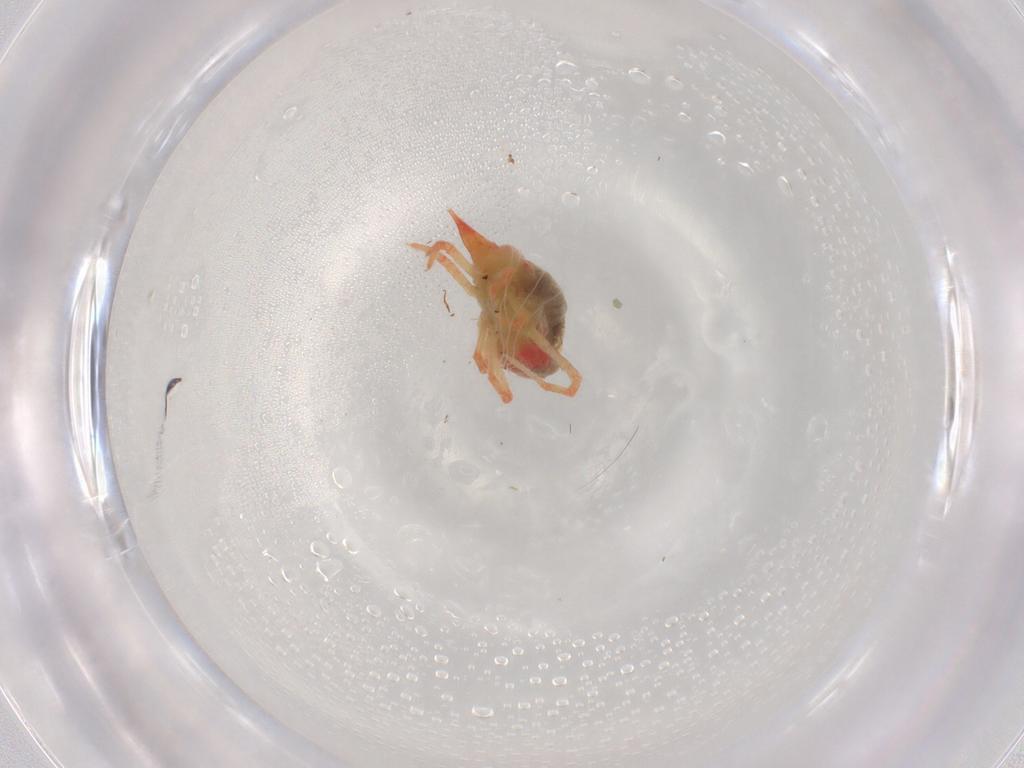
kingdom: Animalia
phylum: Arthropoda
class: Arachnida
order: Trombidiformes
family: Bdellidae
